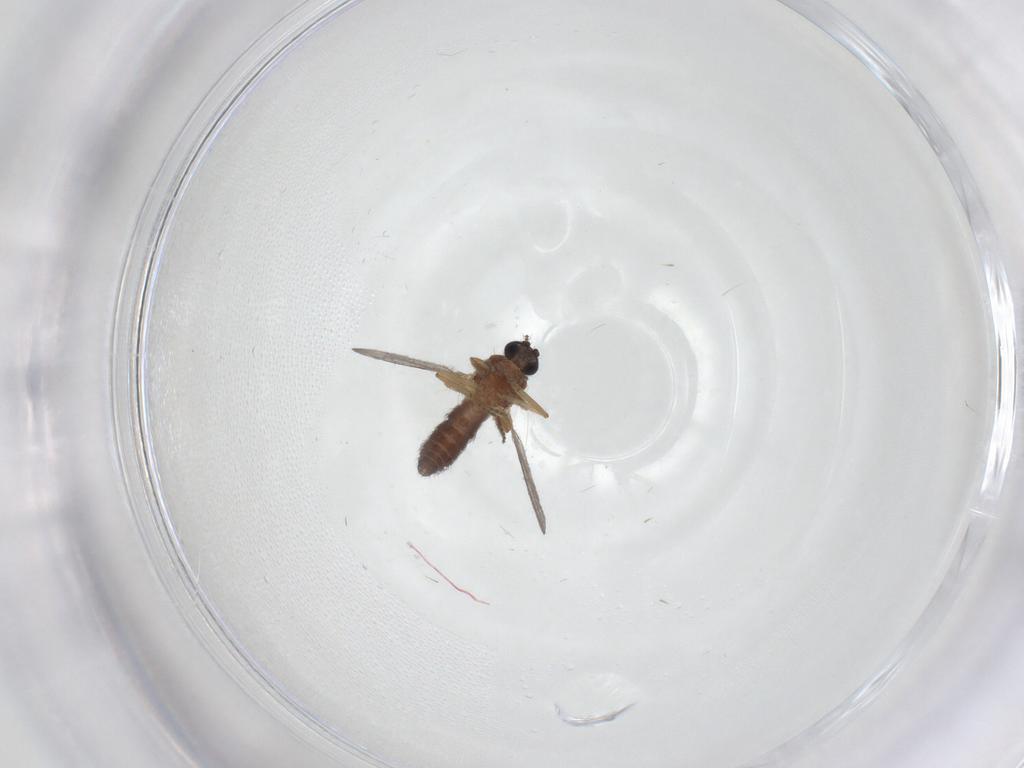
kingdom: Animalia
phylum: Arthropoda
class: Insecta
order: Diptera
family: Ceratopogonidae
